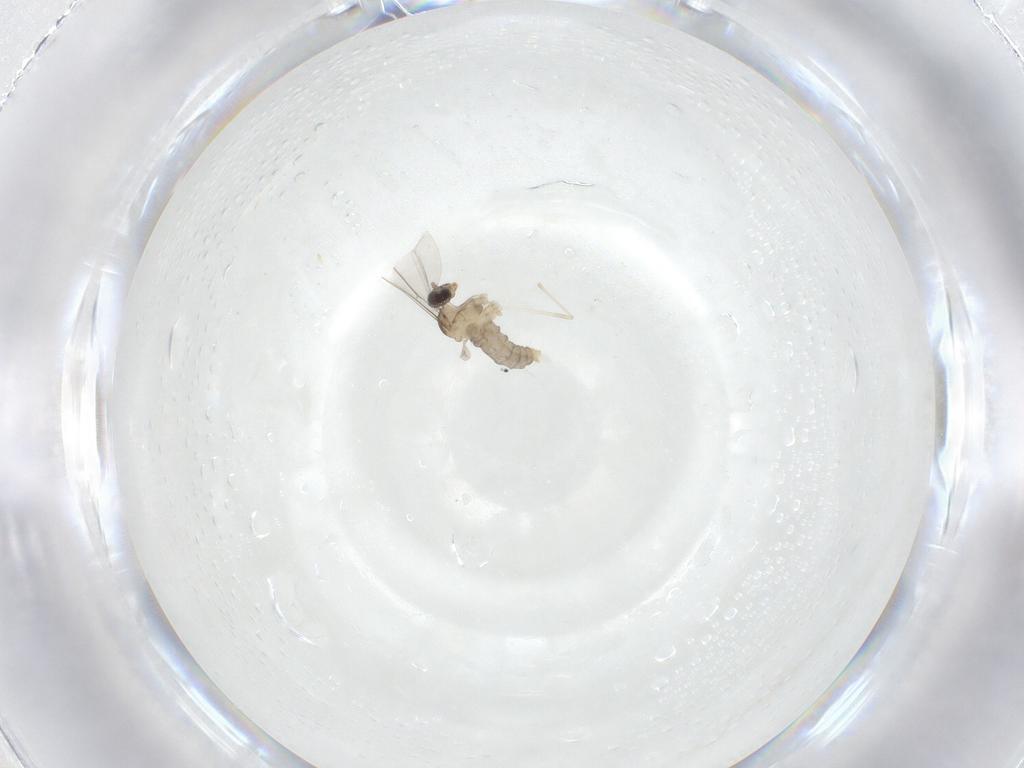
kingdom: Animalia
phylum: Arthropoda
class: Insecta
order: Diptera
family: Cecidomyiidae
